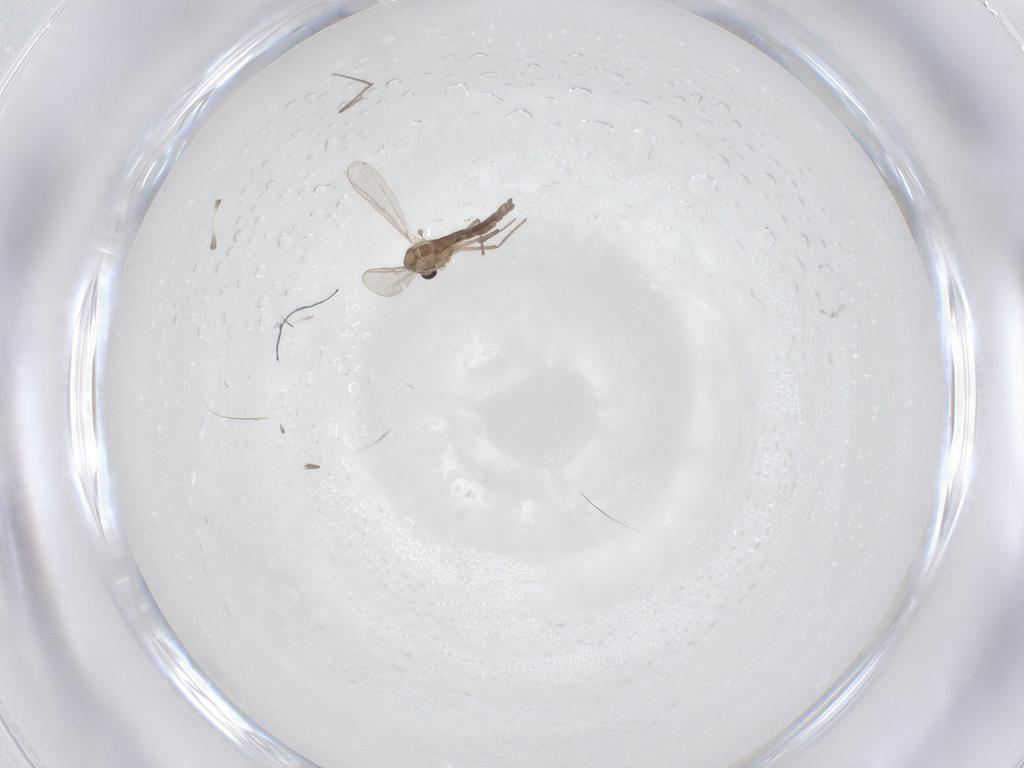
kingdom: Animalia
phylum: Arthropoda
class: Insecta
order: Diptera
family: Chironomidae
